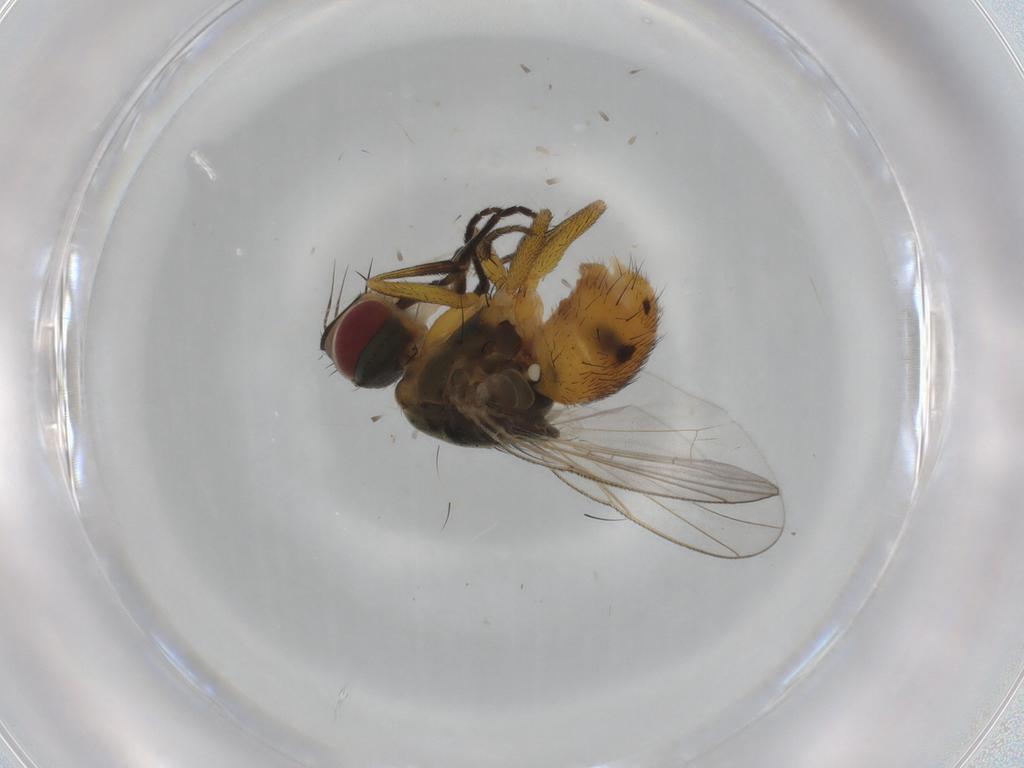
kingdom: Animalia
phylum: Arthropoda
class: Insecta
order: Diptera
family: Muscidae
